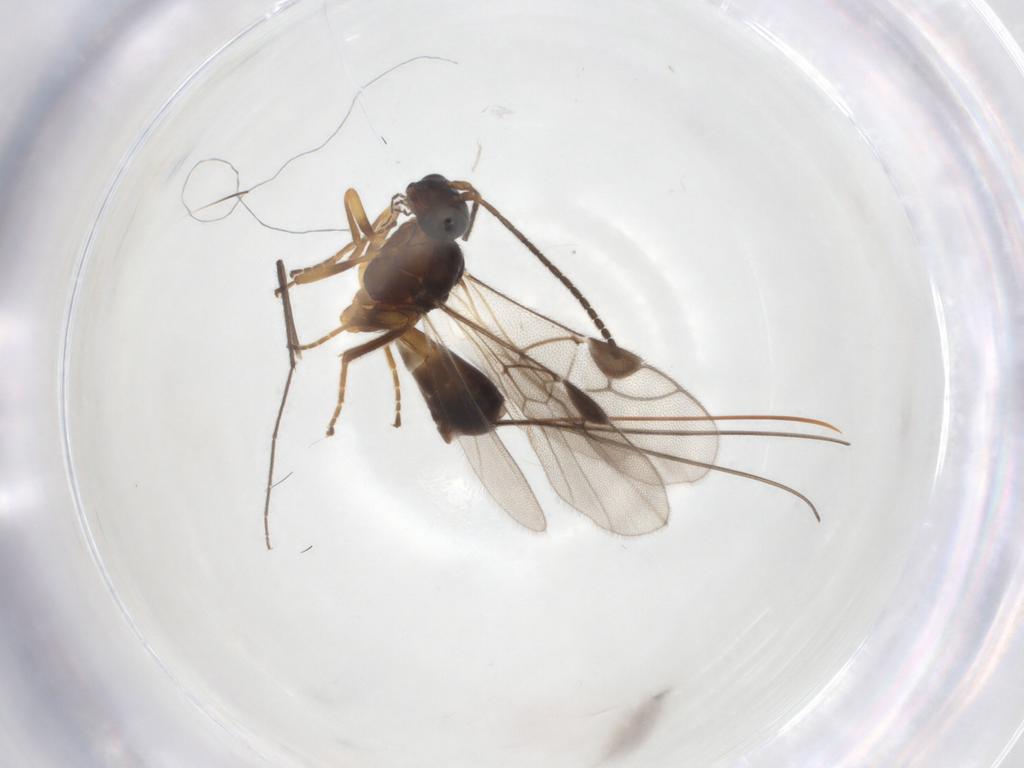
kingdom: Animalia
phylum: Arthropoda
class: Insecta
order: Hymenoptera
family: Braconidae
